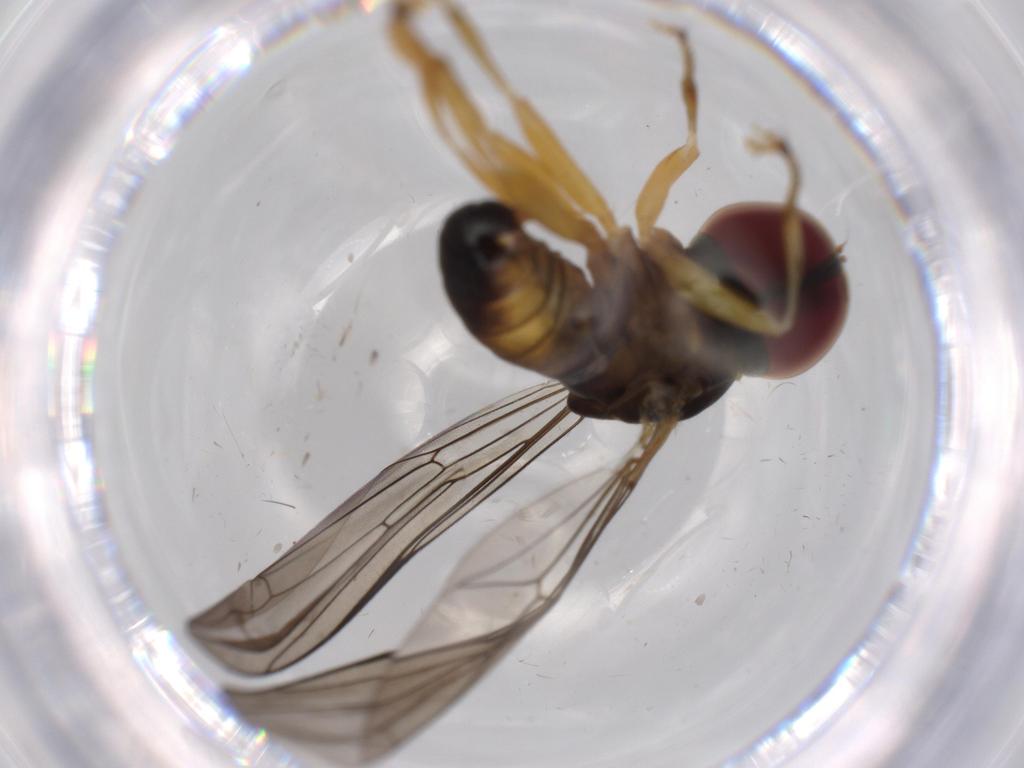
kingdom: Animalia
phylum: Arthropoda
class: Insecta
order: Diptera
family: Pipunculidae
